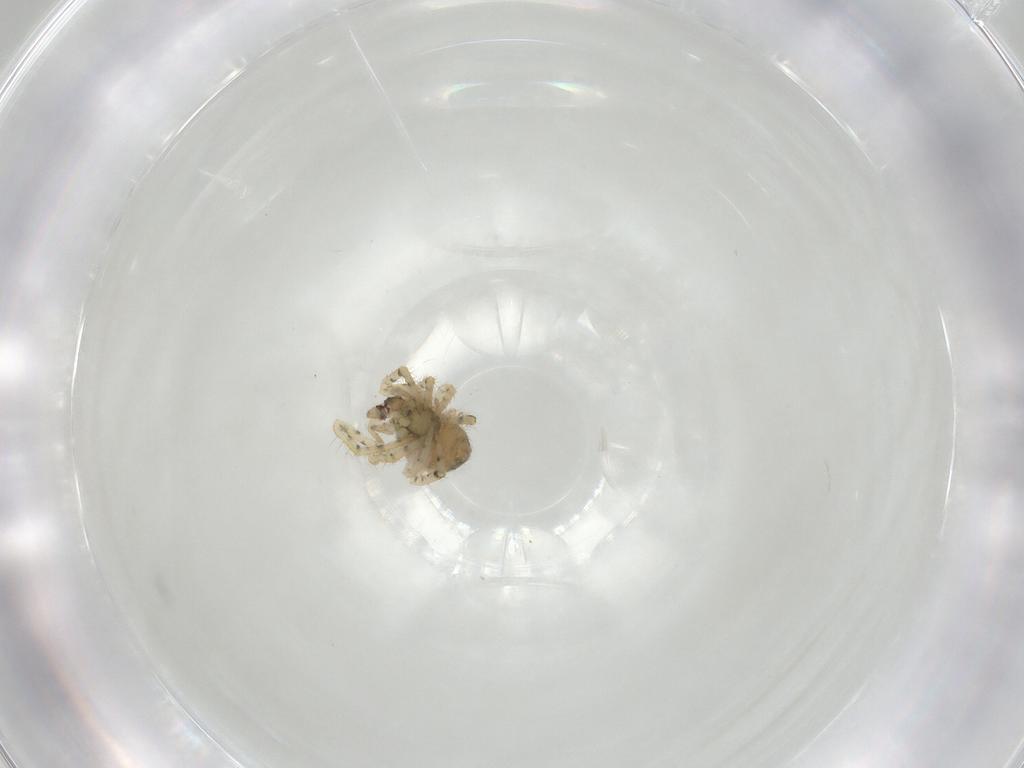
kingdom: Animalia
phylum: Arthropoda
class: Arachnida
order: Araneae
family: Theridiidae
